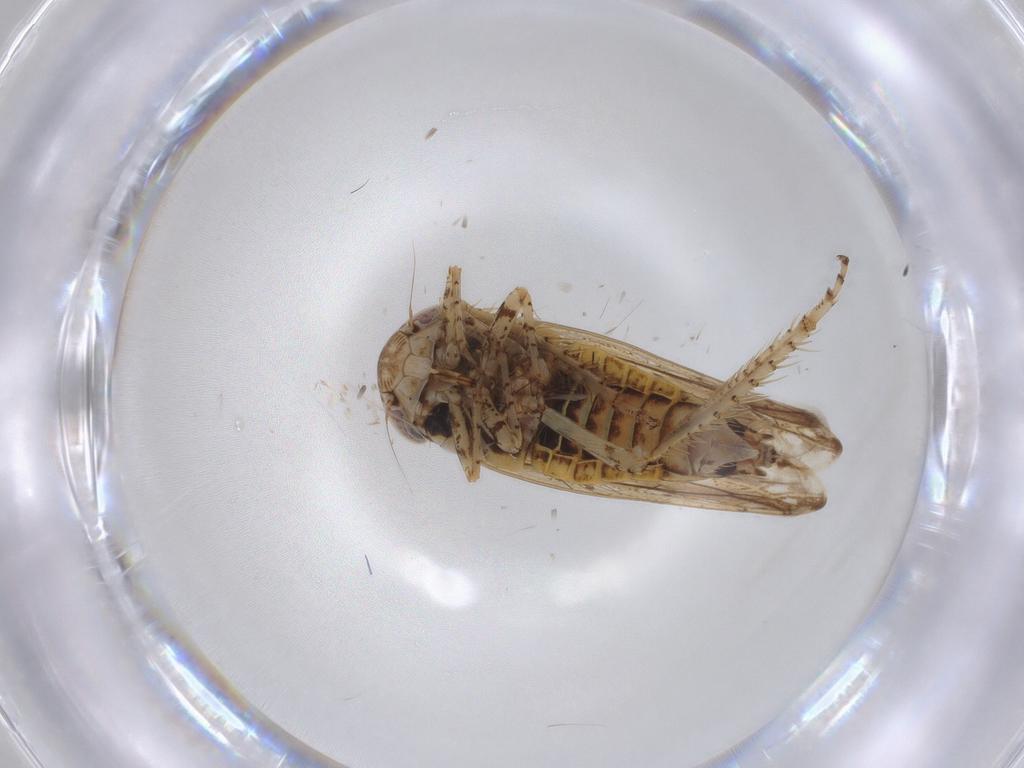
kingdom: Animalia
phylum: Arthropoda
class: Insecta
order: Hemiptera
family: Cicadellidae
